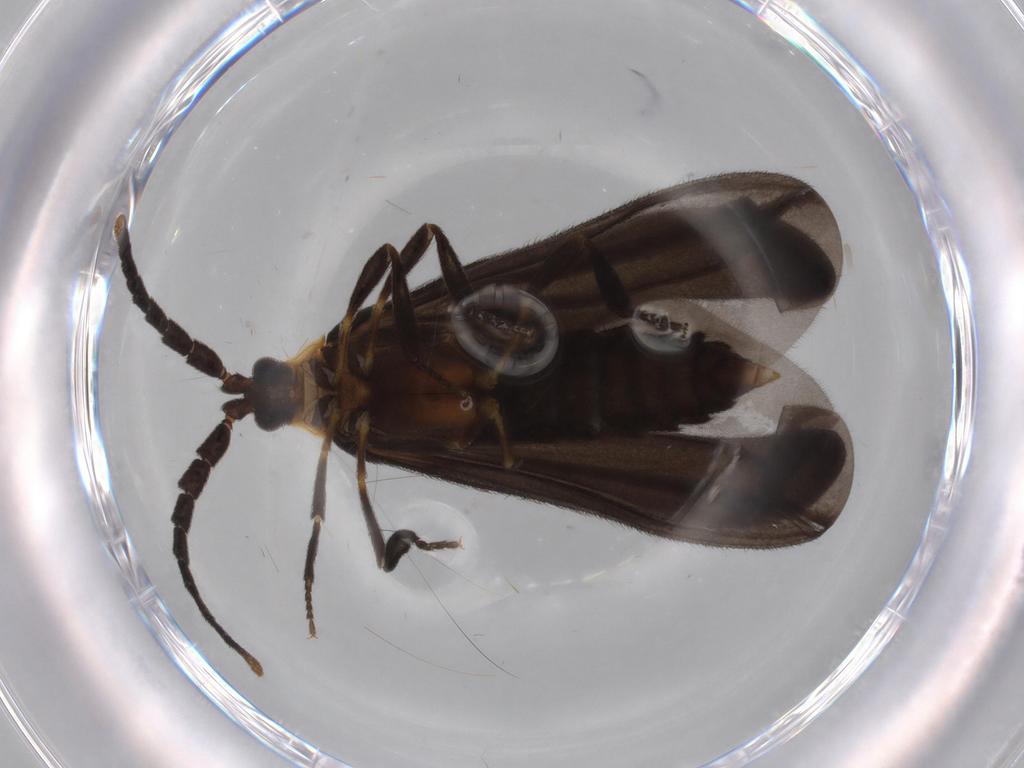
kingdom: Animalia
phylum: Arthropoda
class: Insecta
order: Coleoptera
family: Lycidae
